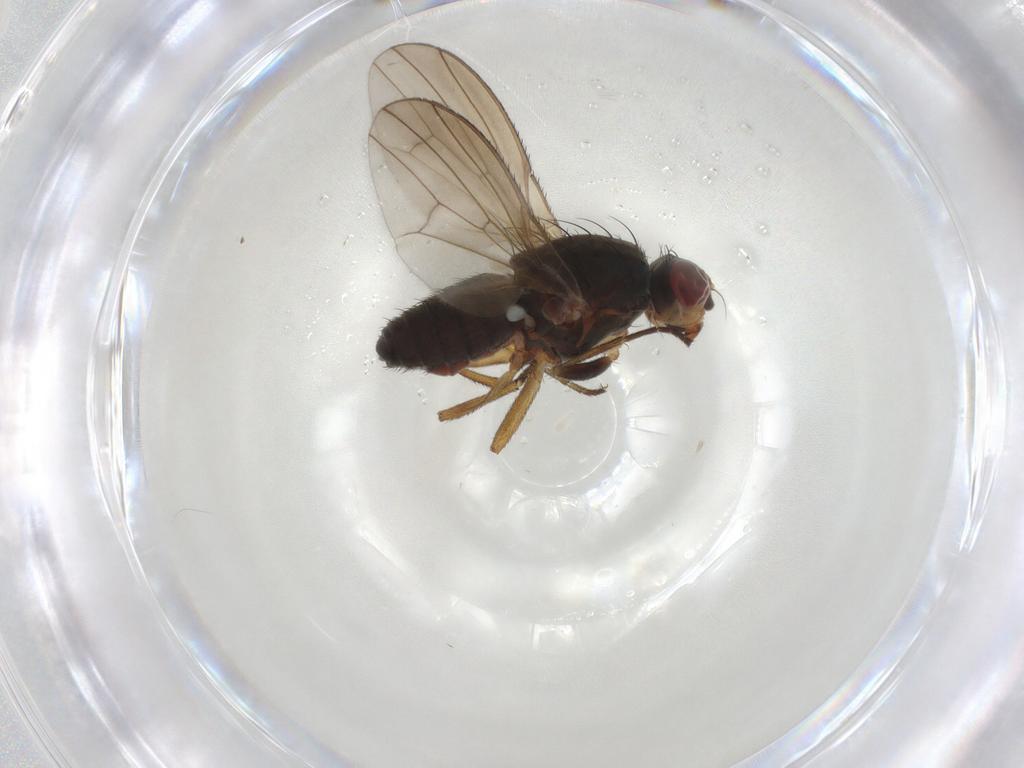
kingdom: Animalia
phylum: Arthropoda
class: Insecta
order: Diptera
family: Heleomyzidae
